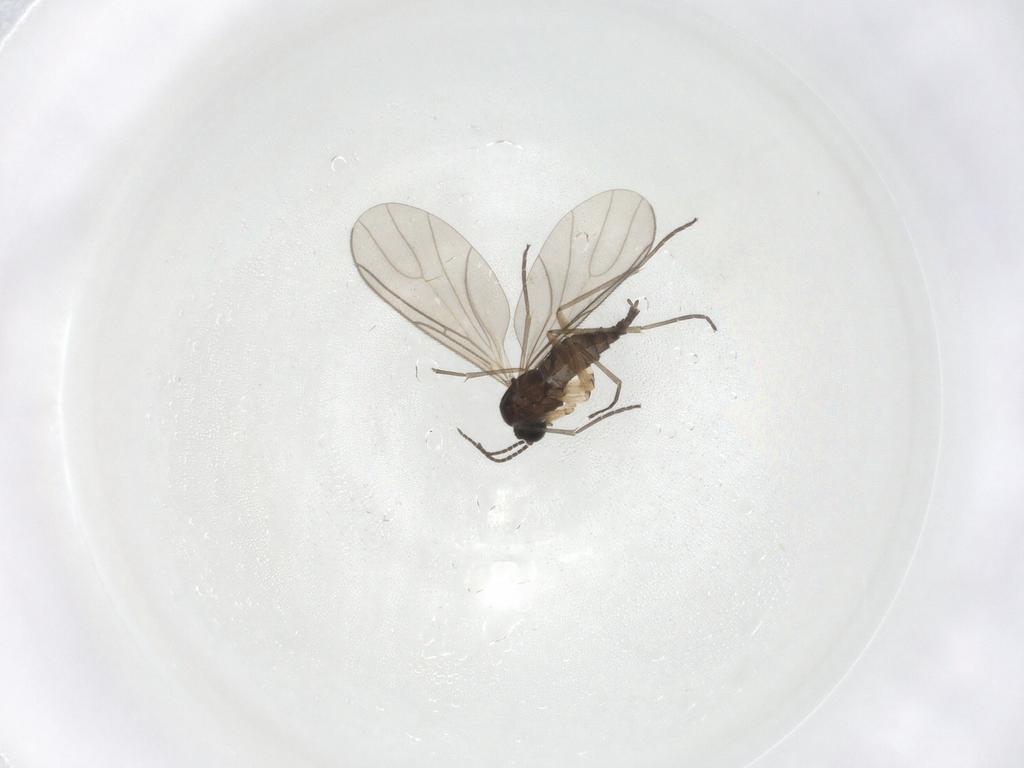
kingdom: Animalia
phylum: Arthropoda
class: Insecta
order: Diptera
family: Sciaridae
